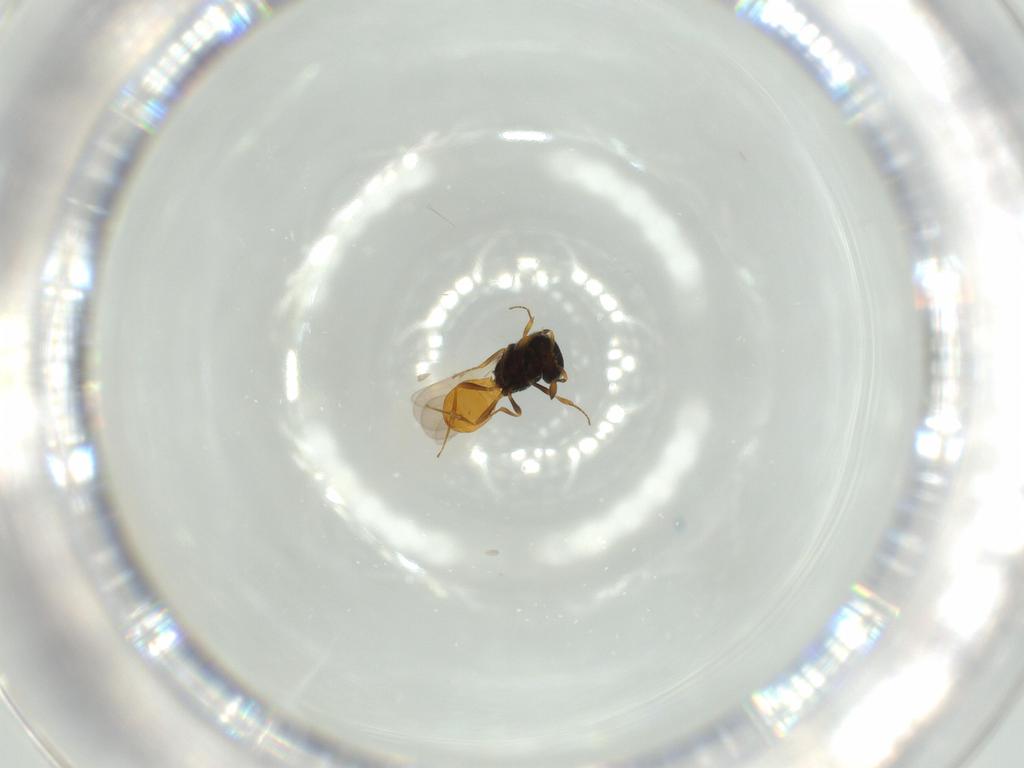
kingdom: Animalia
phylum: Arthropoda
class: Insecta
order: Hymenoptera
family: Scelionidae
